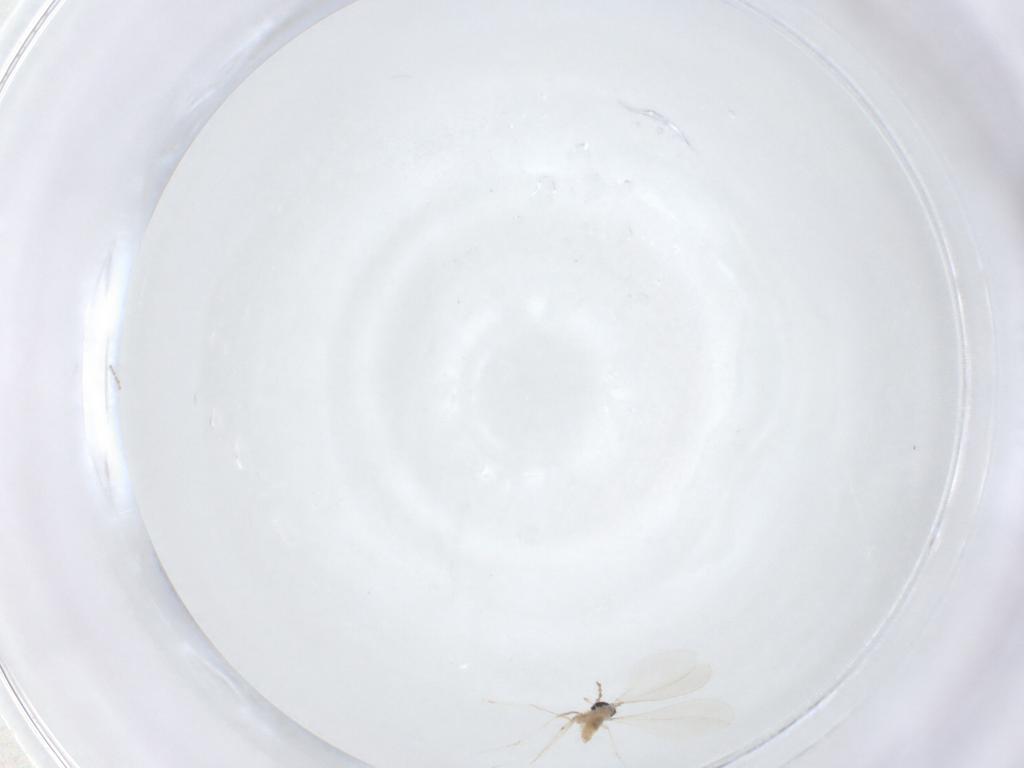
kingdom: Animalia
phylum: Arthropoda
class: Insecta
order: Diptera
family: Cecidomyiidae
